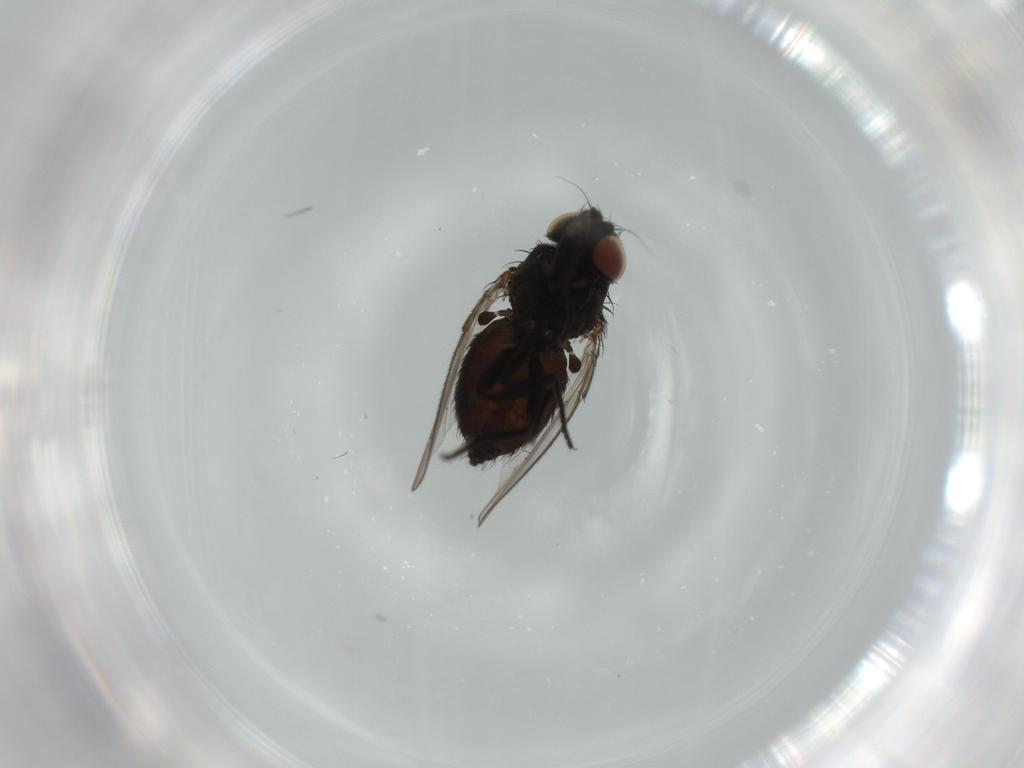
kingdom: Animalia
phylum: Arthropoda
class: Insecta
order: Diptera
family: Milichiidae
